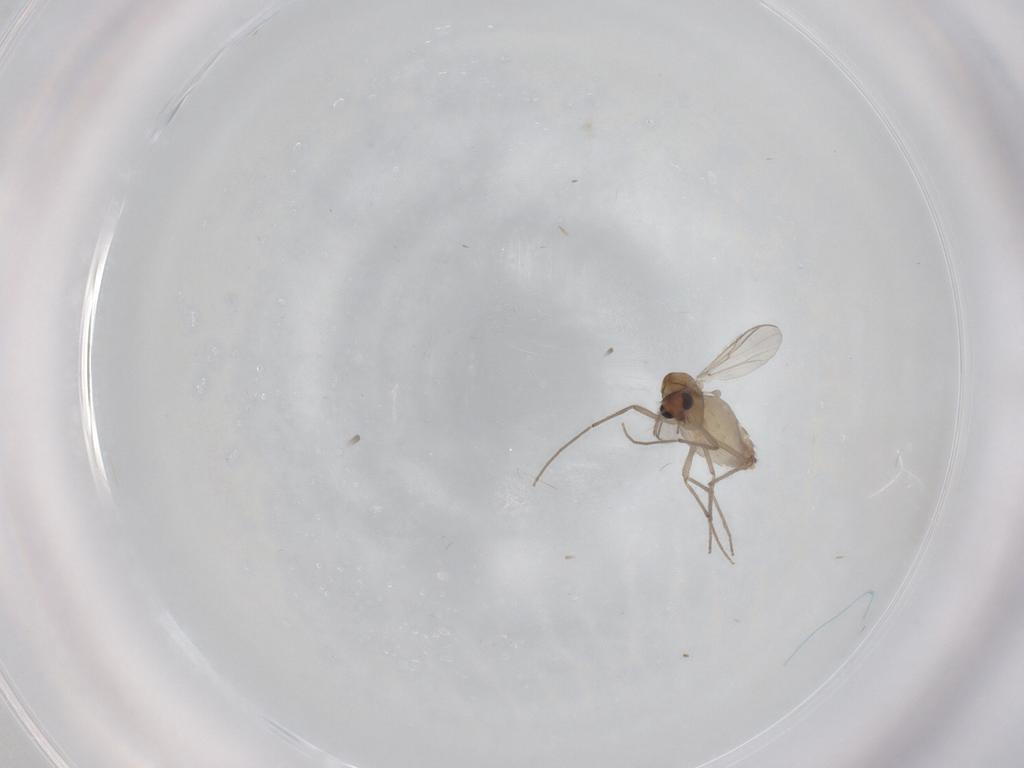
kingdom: Animalia
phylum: Arthropoda
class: Insecta
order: Diptera
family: Chironomidae
